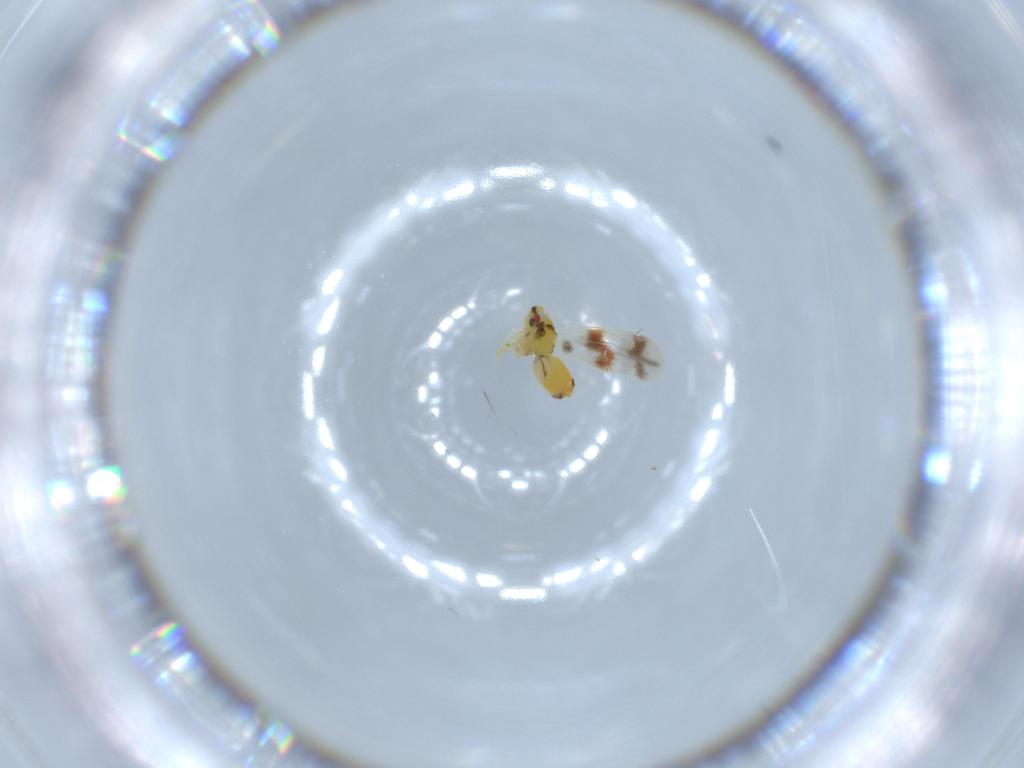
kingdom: Animalia
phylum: Arthropoda
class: Insecta
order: Hemiptera
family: Aleyrodidae
